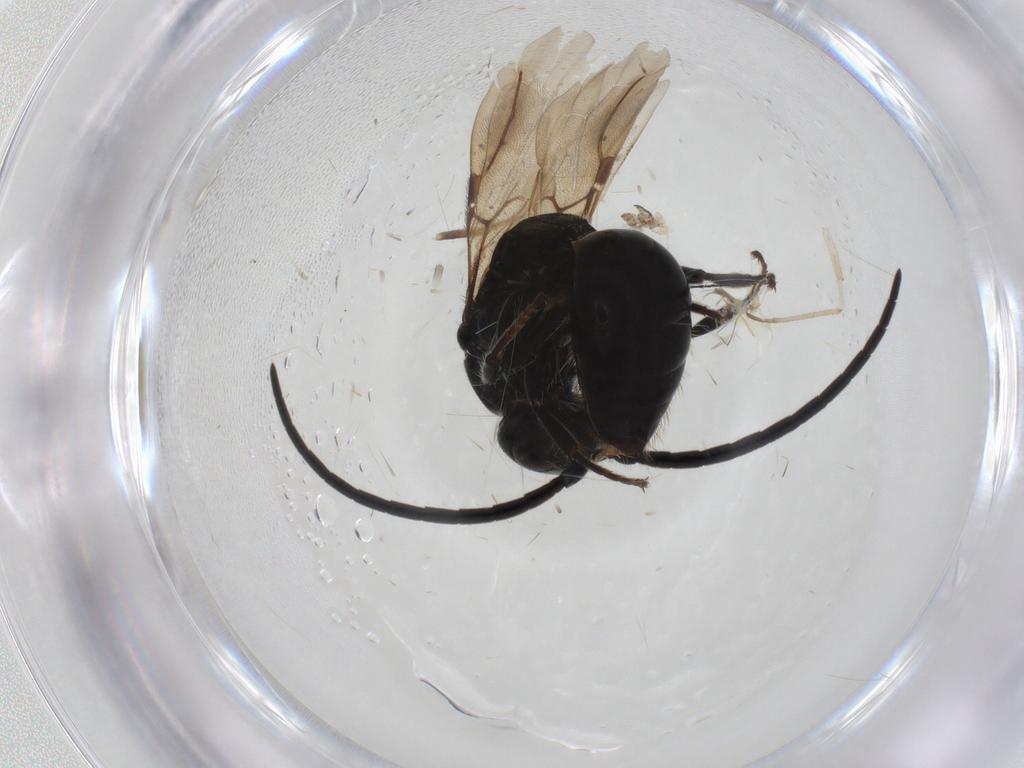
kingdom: Animalia
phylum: Arthropoda
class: Insecta
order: Hymenoptera
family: Bethylidae
